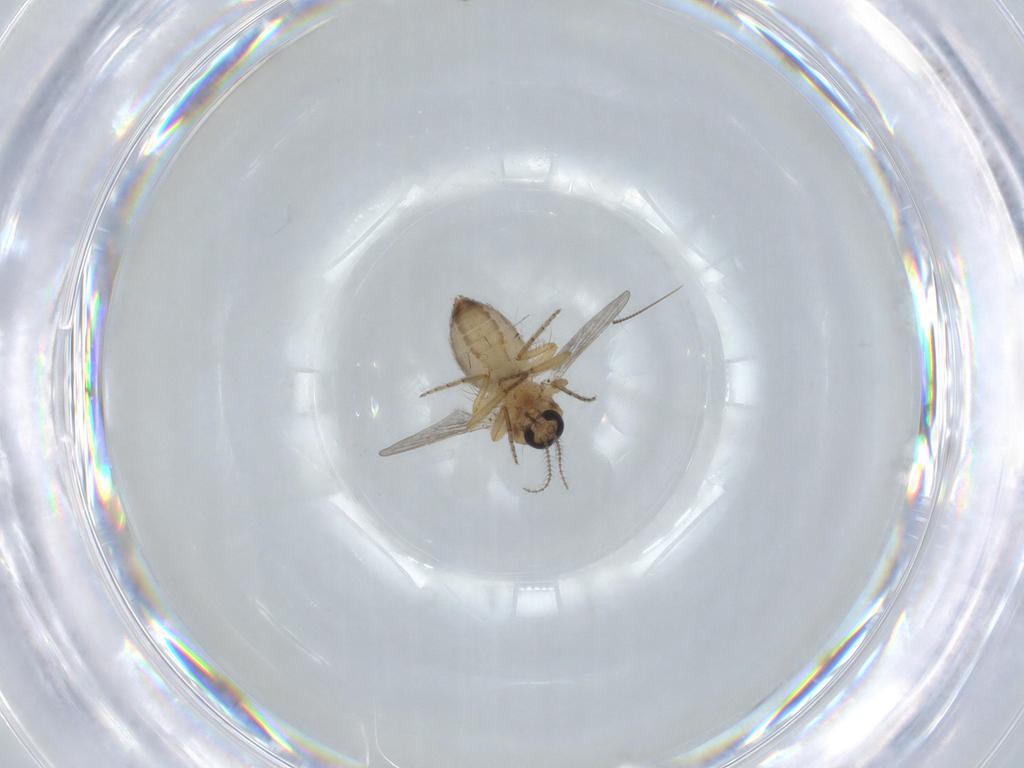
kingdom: Animalia
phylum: Arthropoda
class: Insecta
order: Diptera
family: Ceratopogonidae
